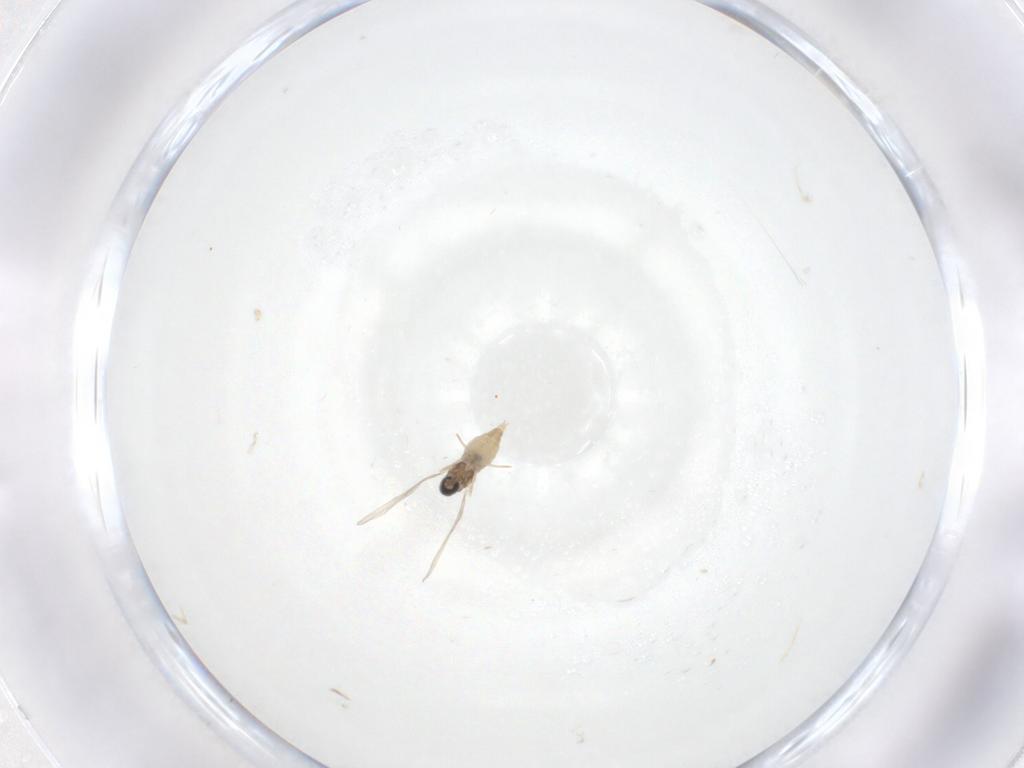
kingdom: Animalia
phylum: Arthropoda
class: Insecta
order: Diptera
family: Cecidomyiidae
